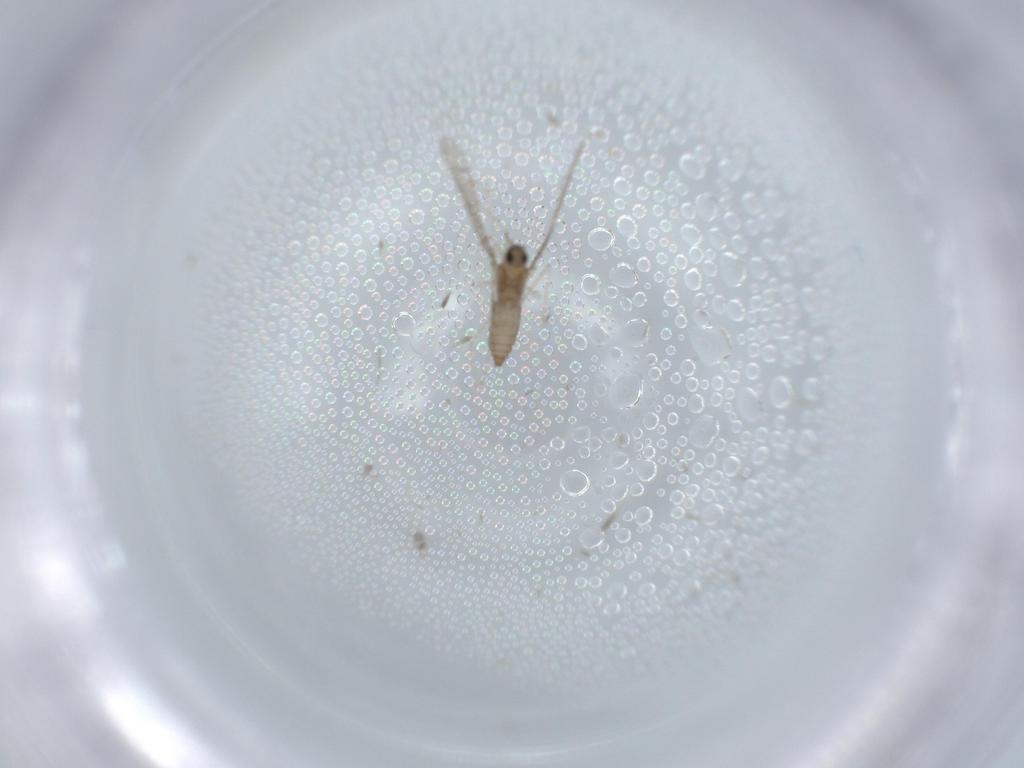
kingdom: Animalia
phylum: Arthropoda
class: Insecta
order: Diptera
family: Cecidomyiidae
